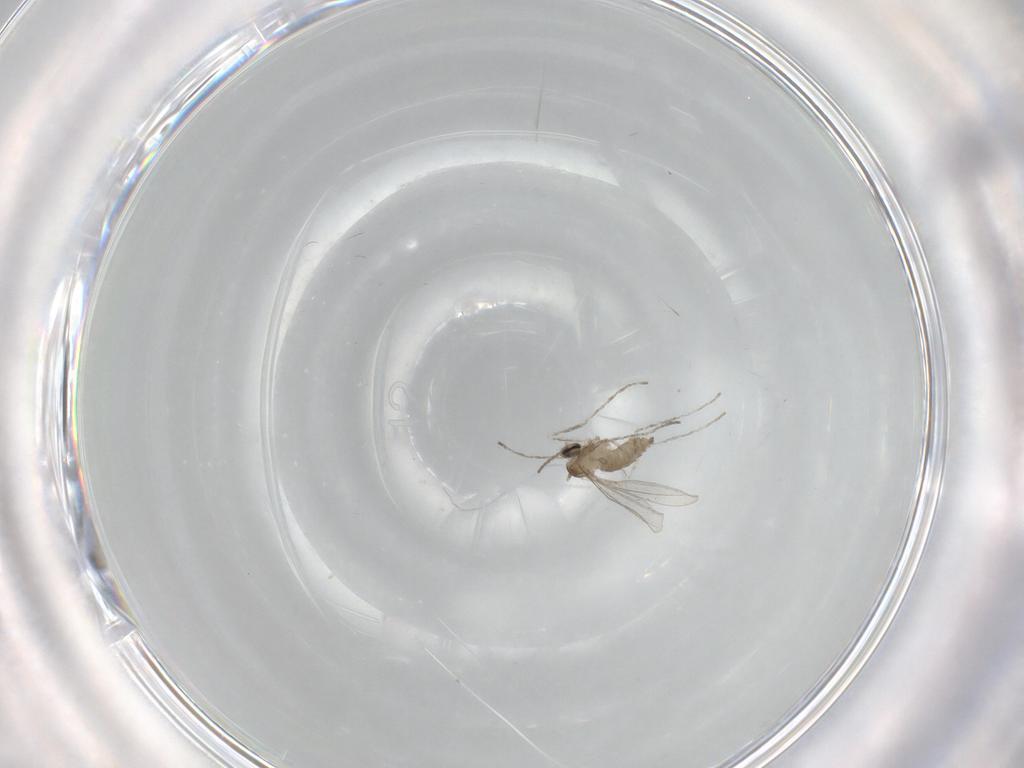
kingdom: Animalia
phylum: Arthropoda
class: Insecta
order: Diptera
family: Cecidomyiidae
